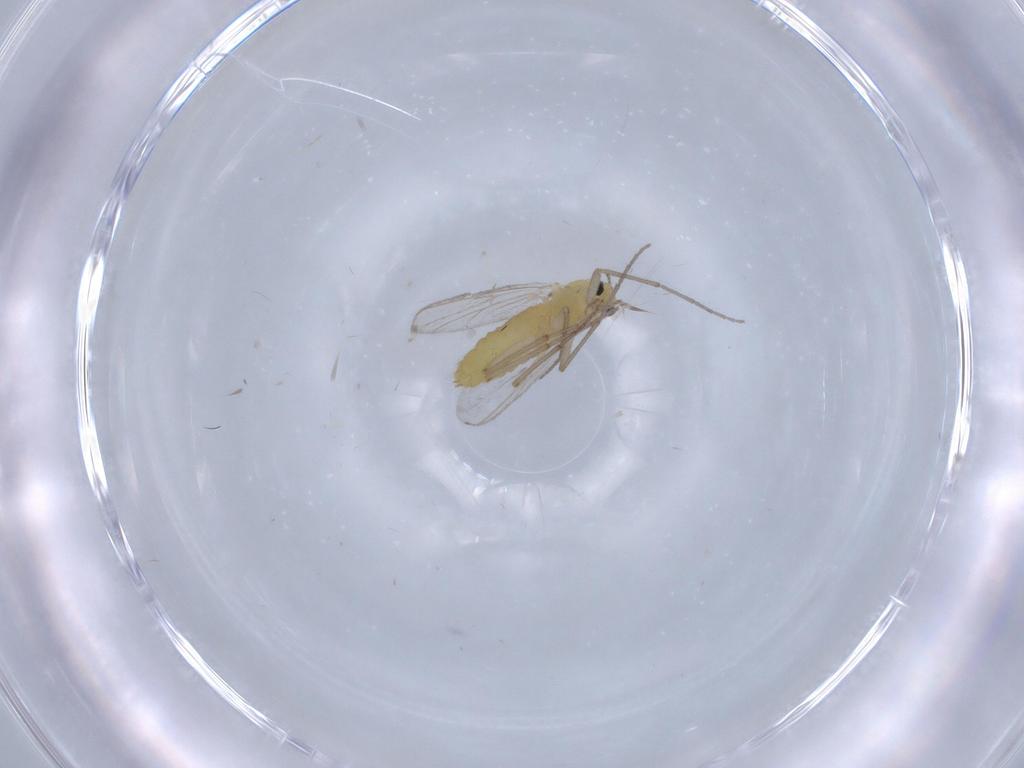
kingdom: Animalia
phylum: Arthropoda
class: Insecta
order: Diptera
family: Chironomidae
